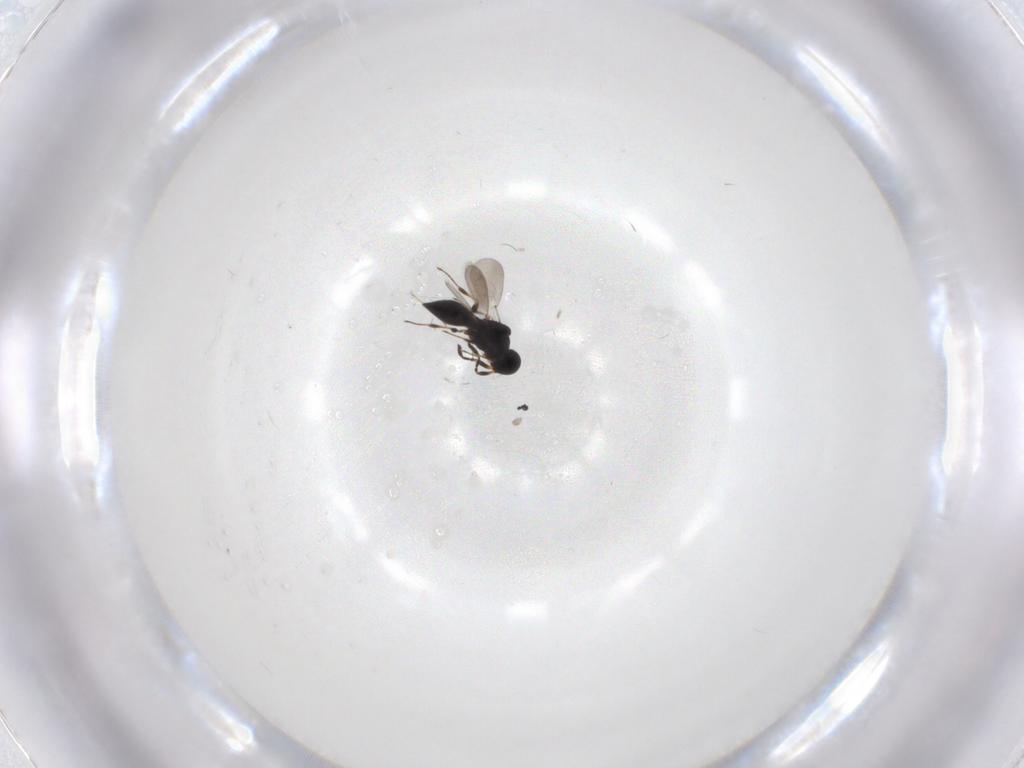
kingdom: Animalia
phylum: Arthropoda
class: Insecta
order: Hymenoptera
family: Platygastridae
